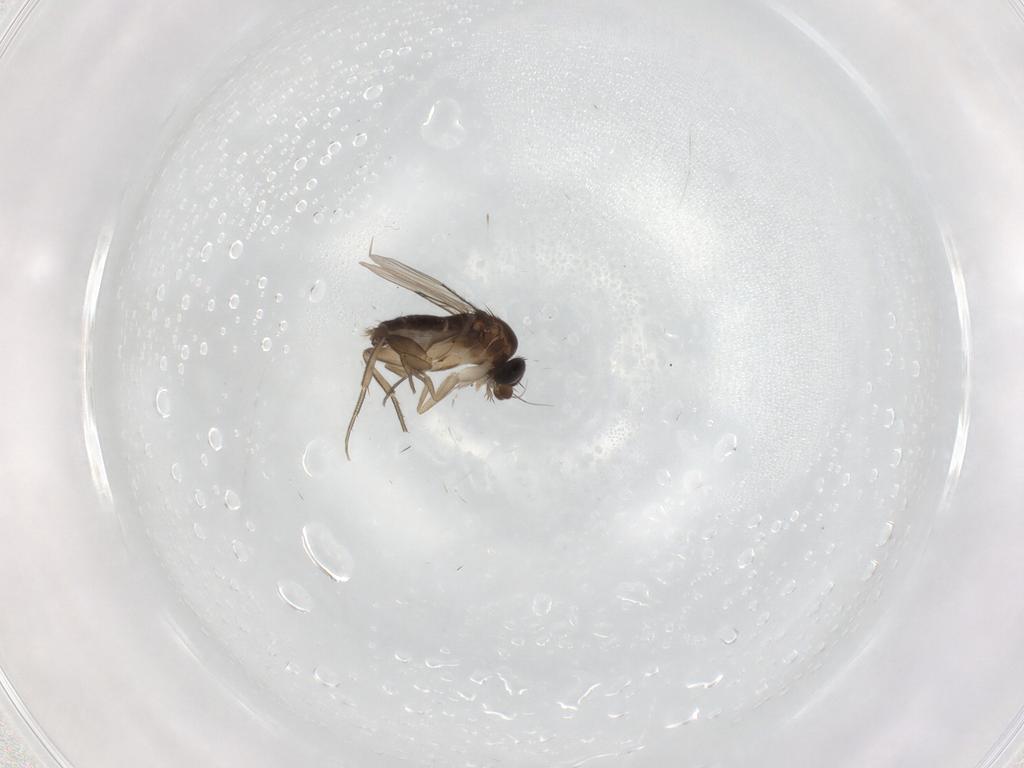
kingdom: Animalia
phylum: Arthropoda
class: Insecta
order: Diptera
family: Phoridae
